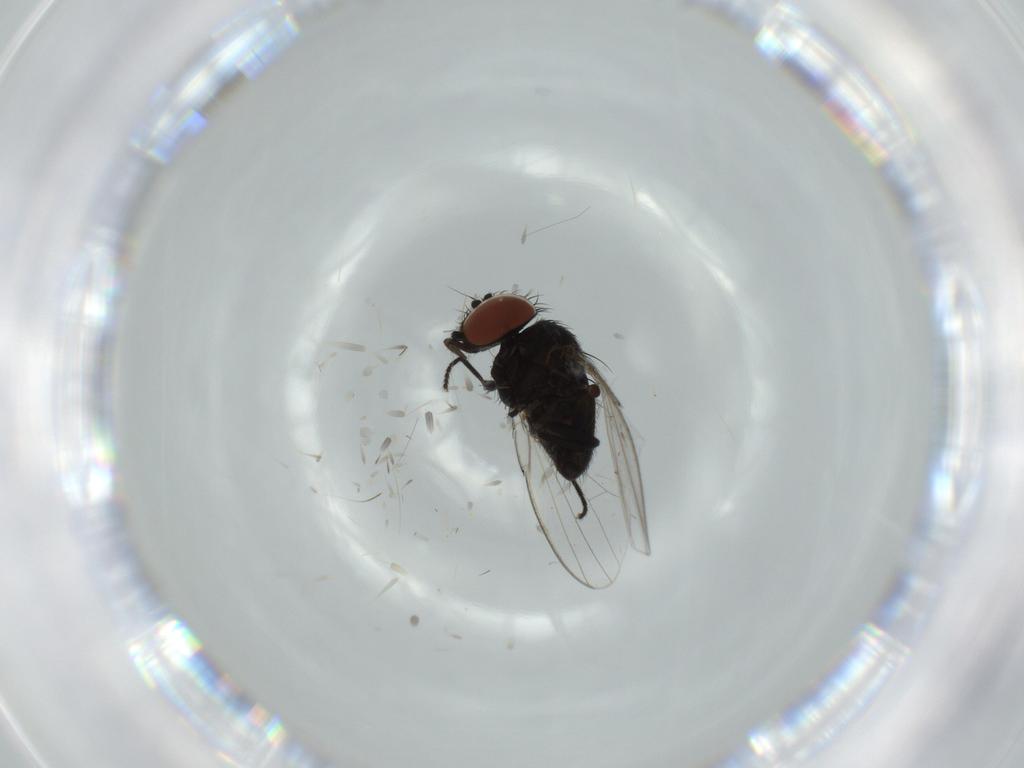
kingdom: Animalia
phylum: Arthropoda
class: Insecta
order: Diptera
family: Milichiidae
